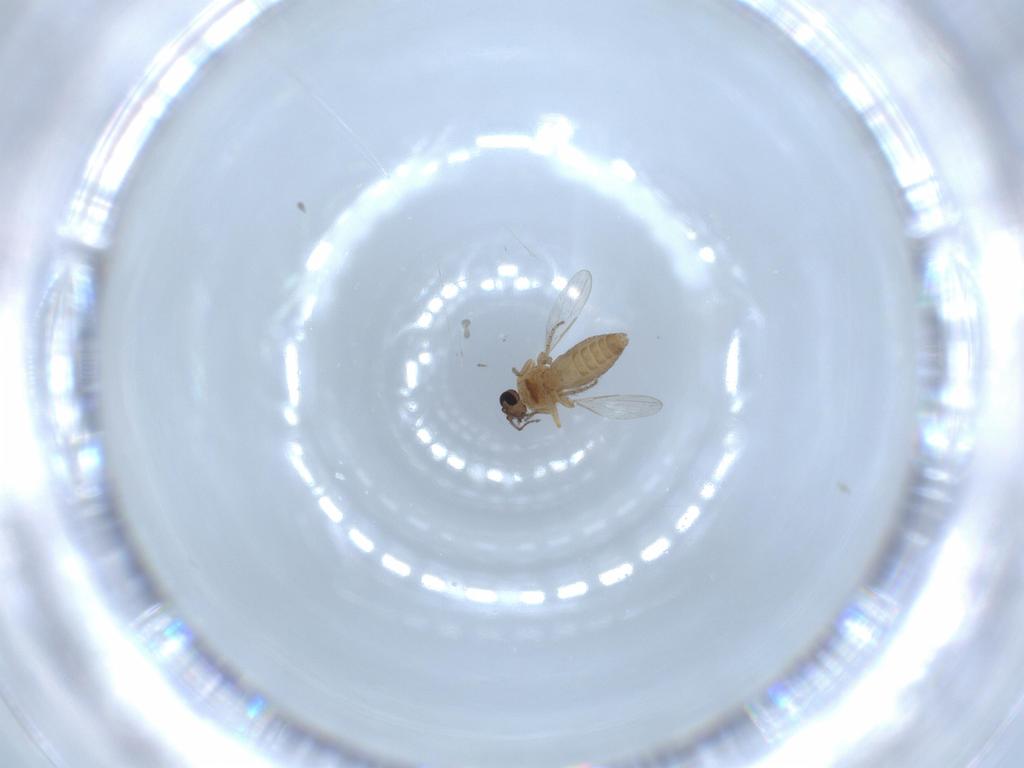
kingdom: Animalia
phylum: Arthropoda
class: Insecta
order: Diptera
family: Ceratopogonidae
